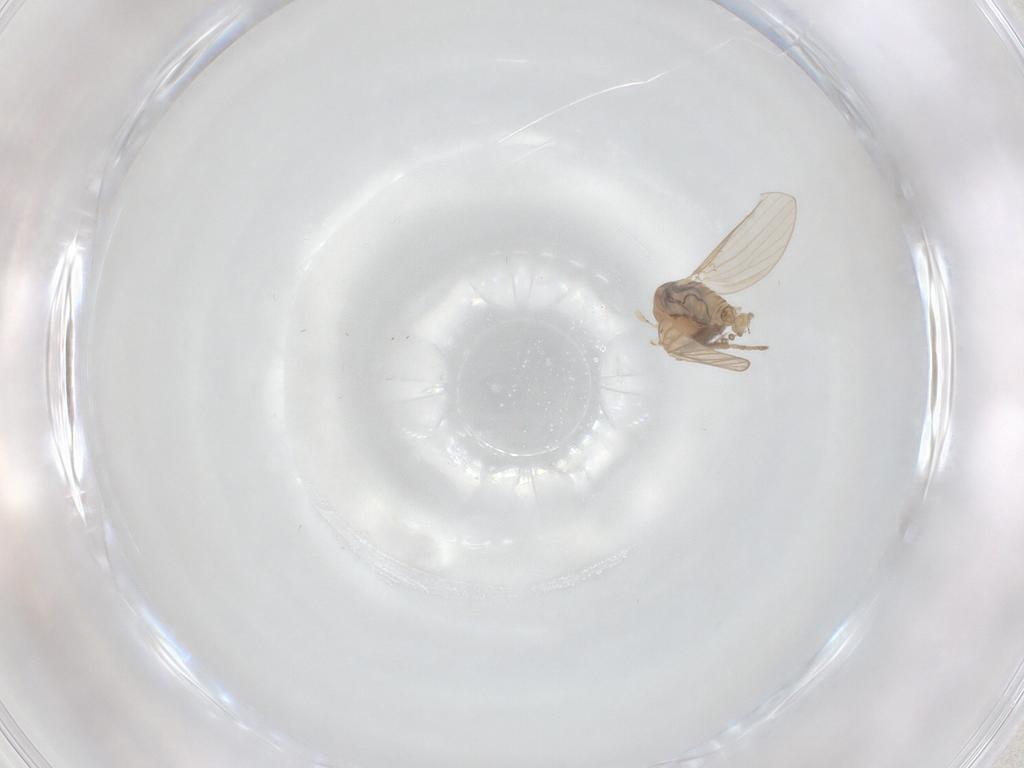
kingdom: Animalia
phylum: Arthropoda
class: Insecta
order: Diptera
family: Psychodidae
